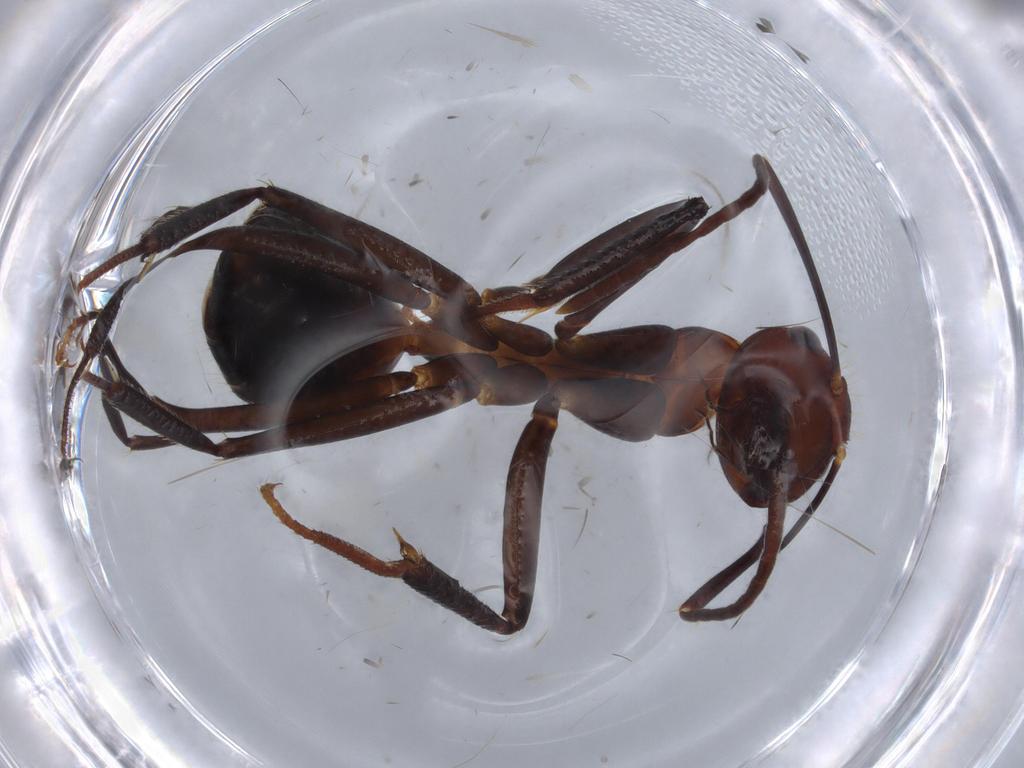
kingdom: Animalia
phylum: Arthropoda
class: Insecta
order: Hymenoptera
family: Formicidae
